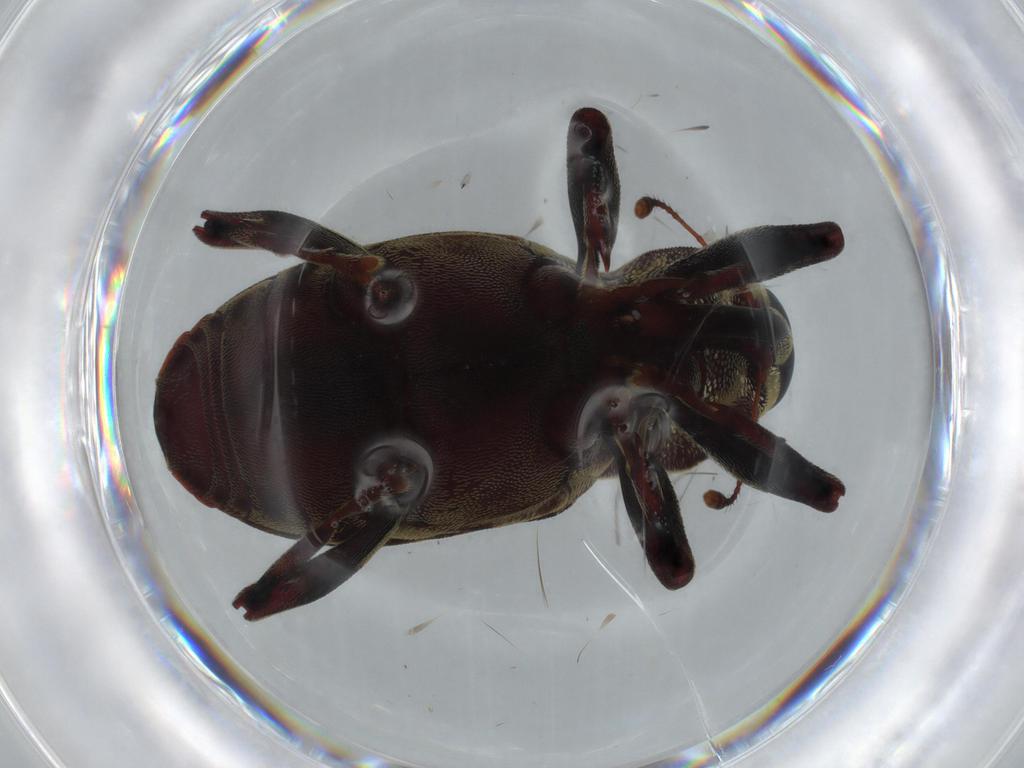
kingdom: Animalia
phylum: Arthropoda
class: Insecta
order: Coleoptera
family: Curculionidae
